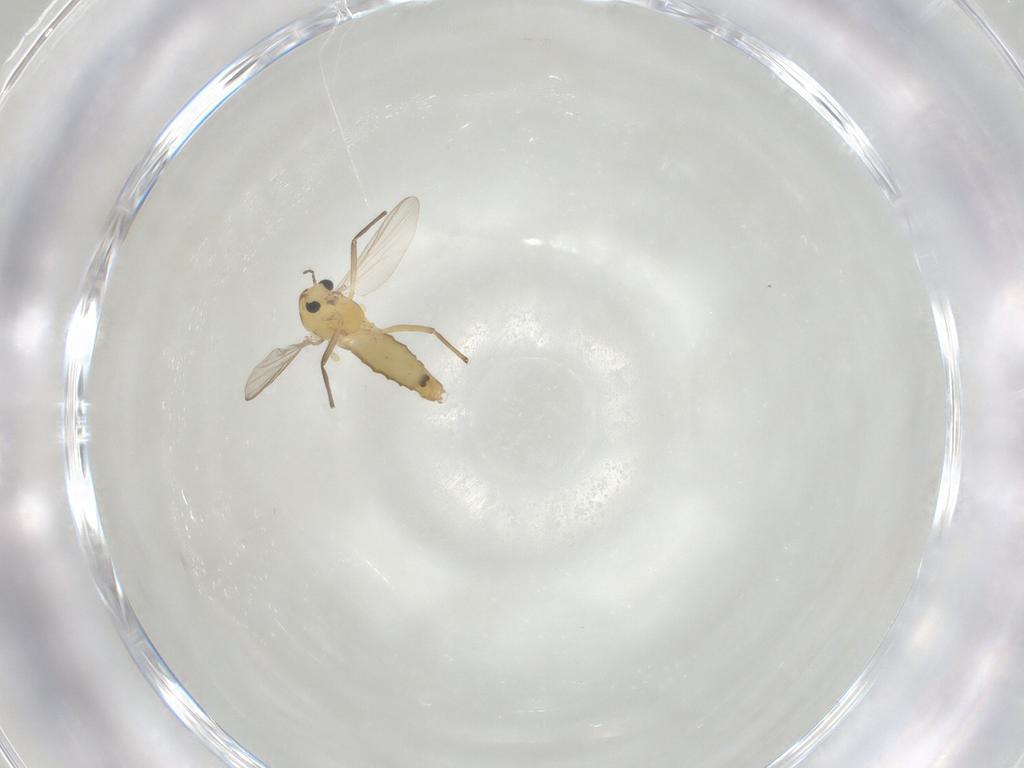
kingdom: Animalia
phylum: Arthropoda
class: Insecta
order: Diptera
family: Chironomidae
